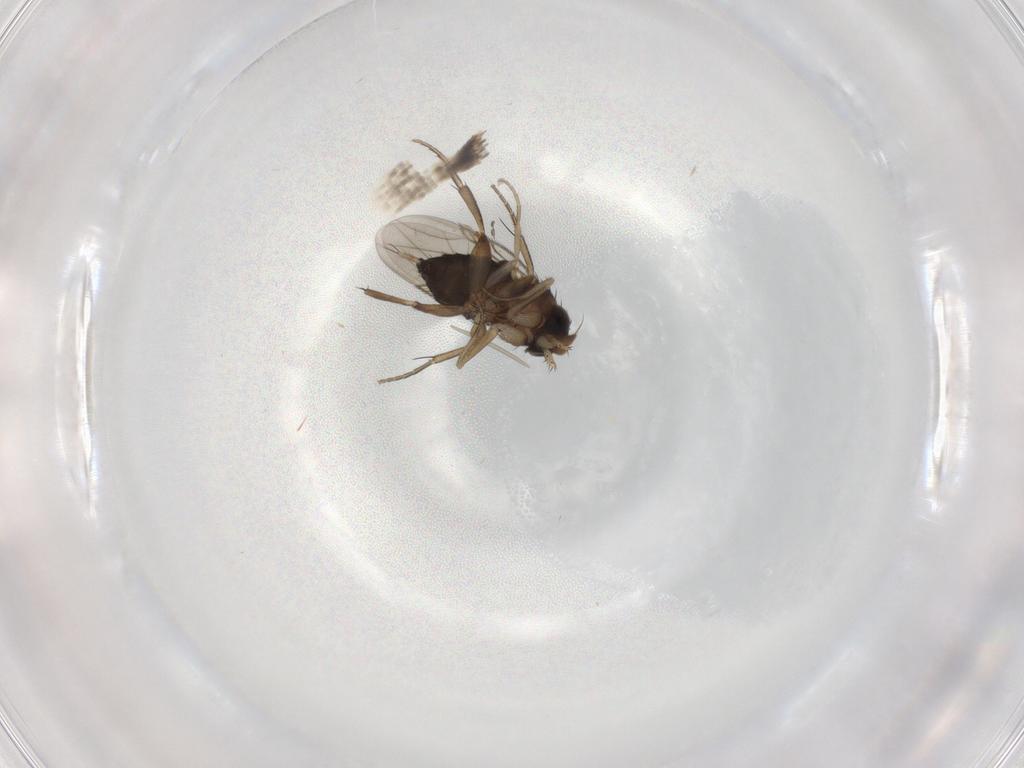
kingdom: Animalia
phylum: Arthropoda
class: Insecta
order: Diptera
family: Phoridae
